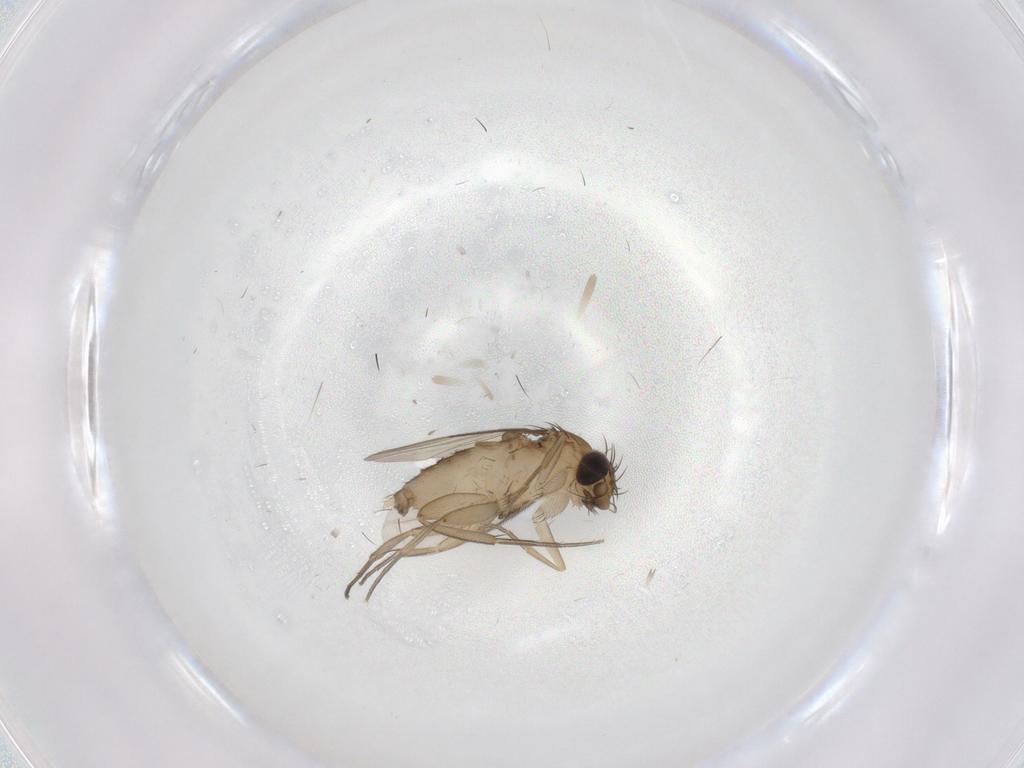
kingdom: Animalia
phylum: Arthropoda
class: Insecta
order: Diptera
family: Phoridae
